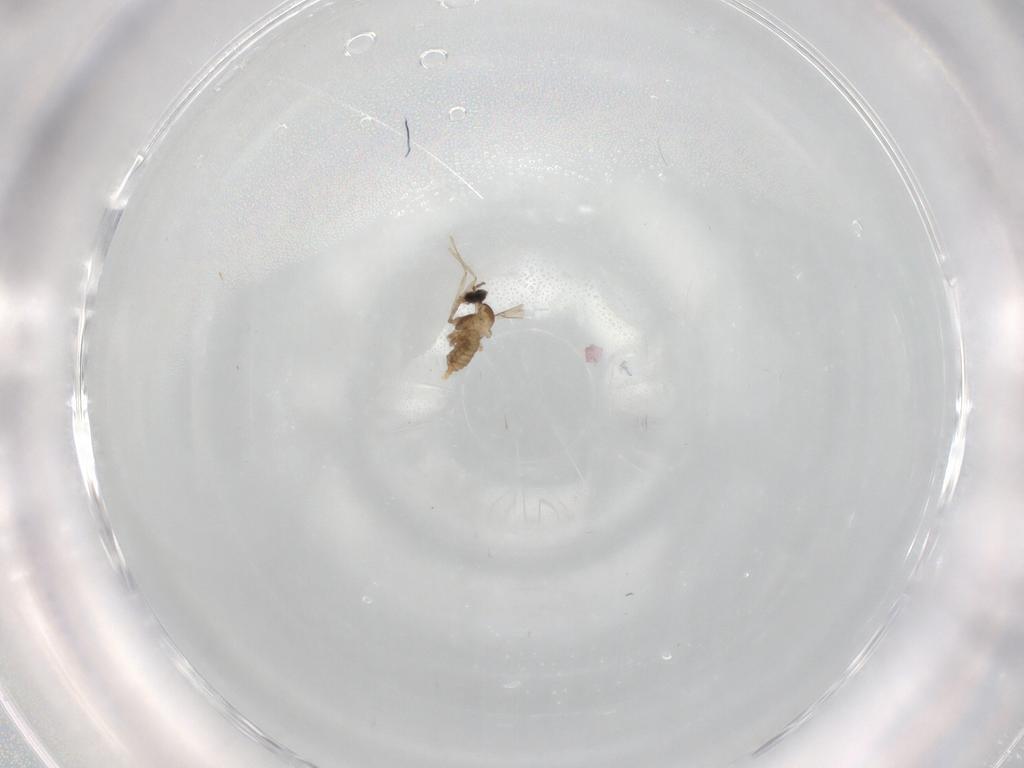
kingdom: Animalia
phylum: Arthropoda
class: Insecta
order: Diptera
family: Cecidomyiidae
